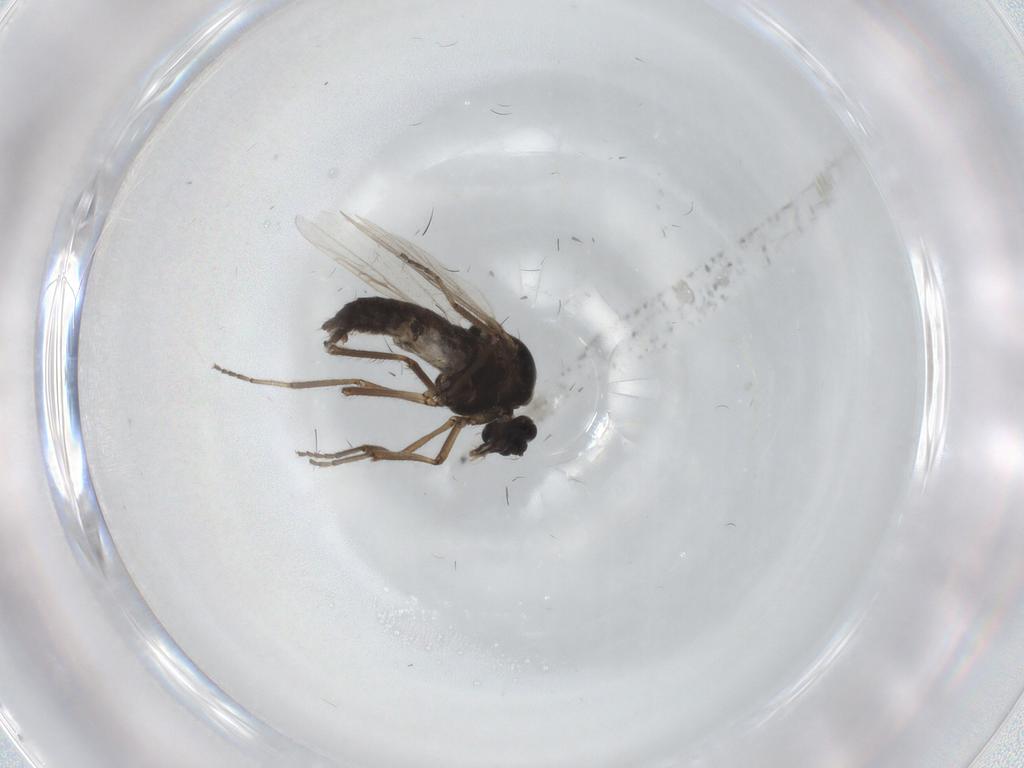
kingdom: Animalia
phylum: Arthropoda
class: Insecta
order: Diptera
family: Ceratopogonidae
